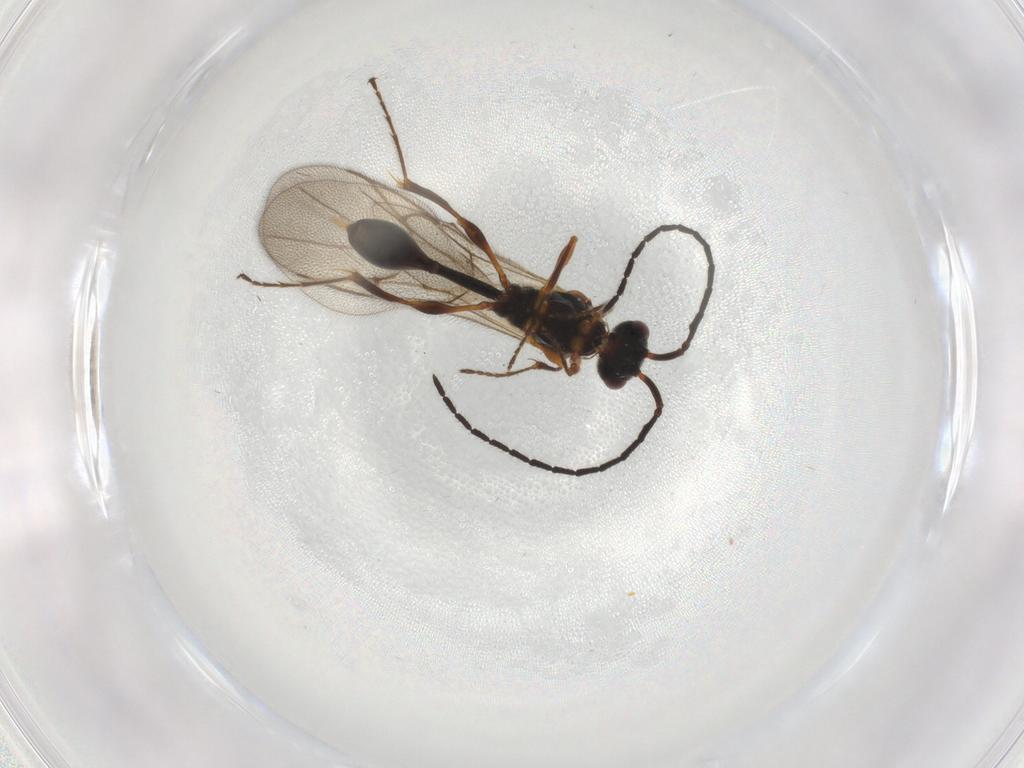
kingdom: Animalia
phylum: Arthropoda
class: Insecta
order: Hymenoptera
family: Diapriidae
